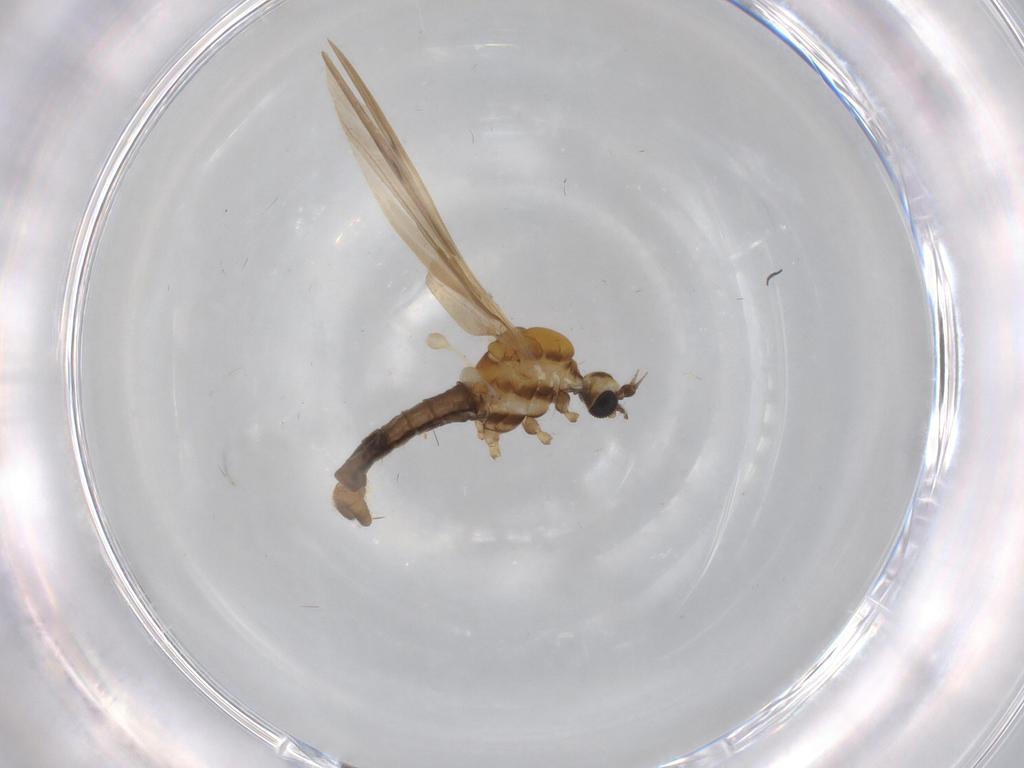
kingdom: Animalia
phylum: Arthropoda
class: Insecta
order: Diptera
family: Limoniidae
